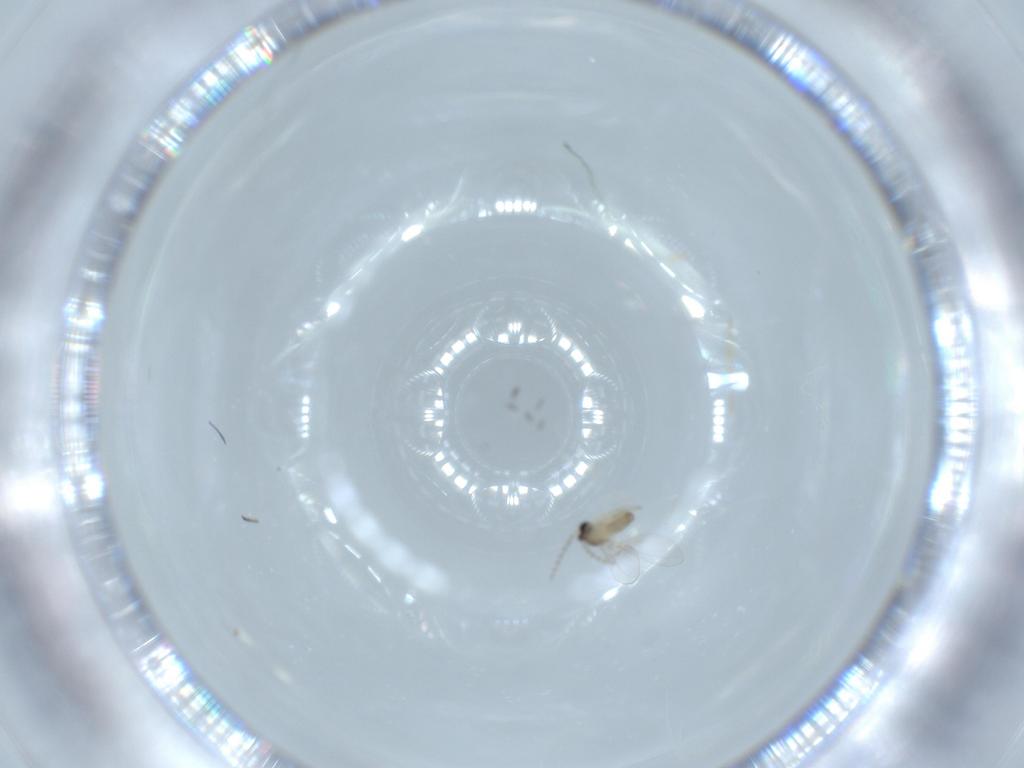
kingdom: Animalia
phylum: Arthropoda
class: Insecta
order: Diptera
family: Cecidomyiidae
